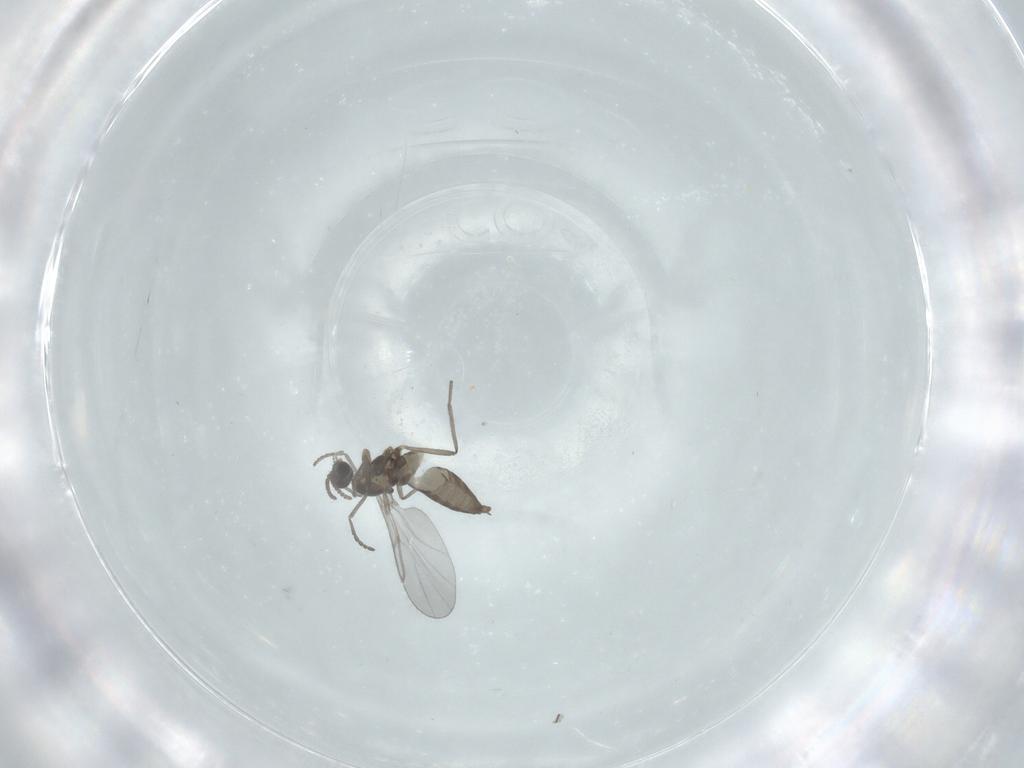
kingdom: Animalia
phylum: Arthropoda
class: Insecta
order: Diptera
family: Cecidomyiidae
